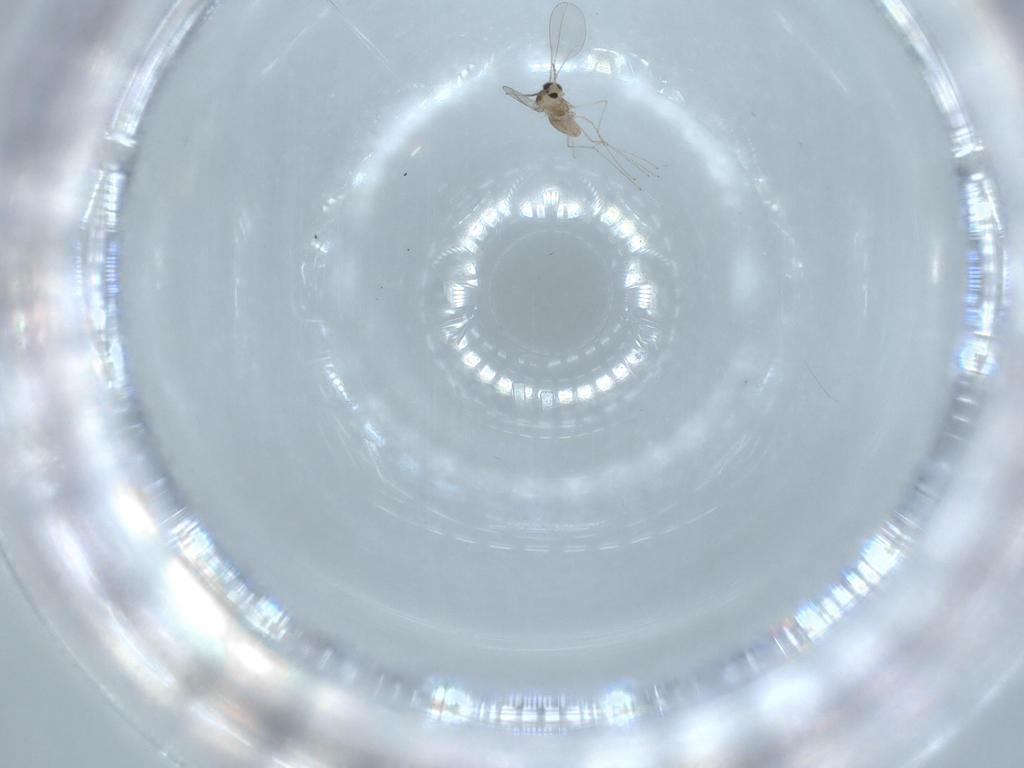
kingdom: Animalia
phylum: Arthropoda
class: Insecta
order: Diptera
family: Cecidomyiidae
